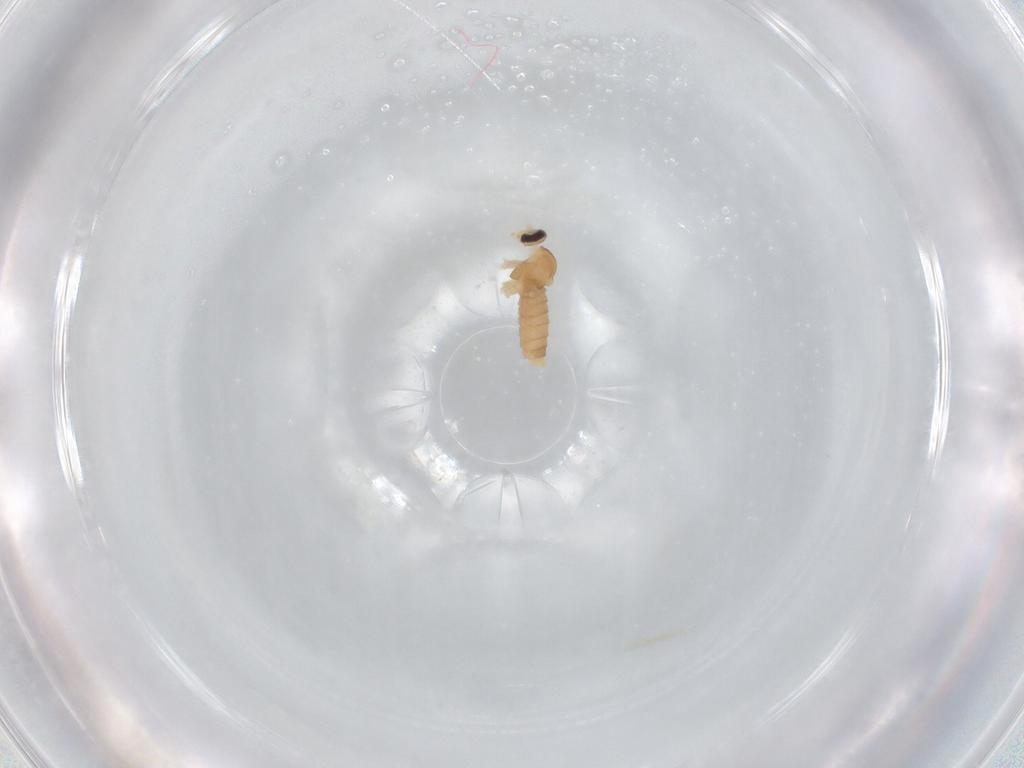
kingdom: Animalia
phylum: Arthropoda
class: Insecta
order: Diptera
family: Cecidomyiidae
